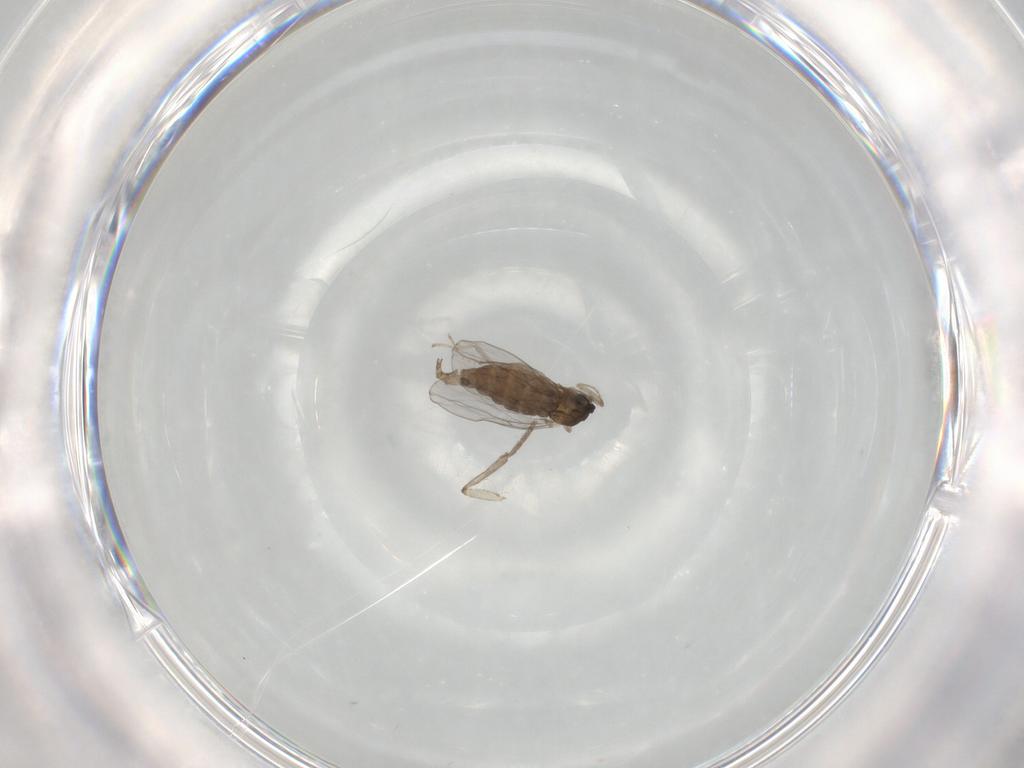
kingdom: Animalia
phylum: Arthropoda
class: Insecta
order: Diptera
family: Cecidomyiidae
